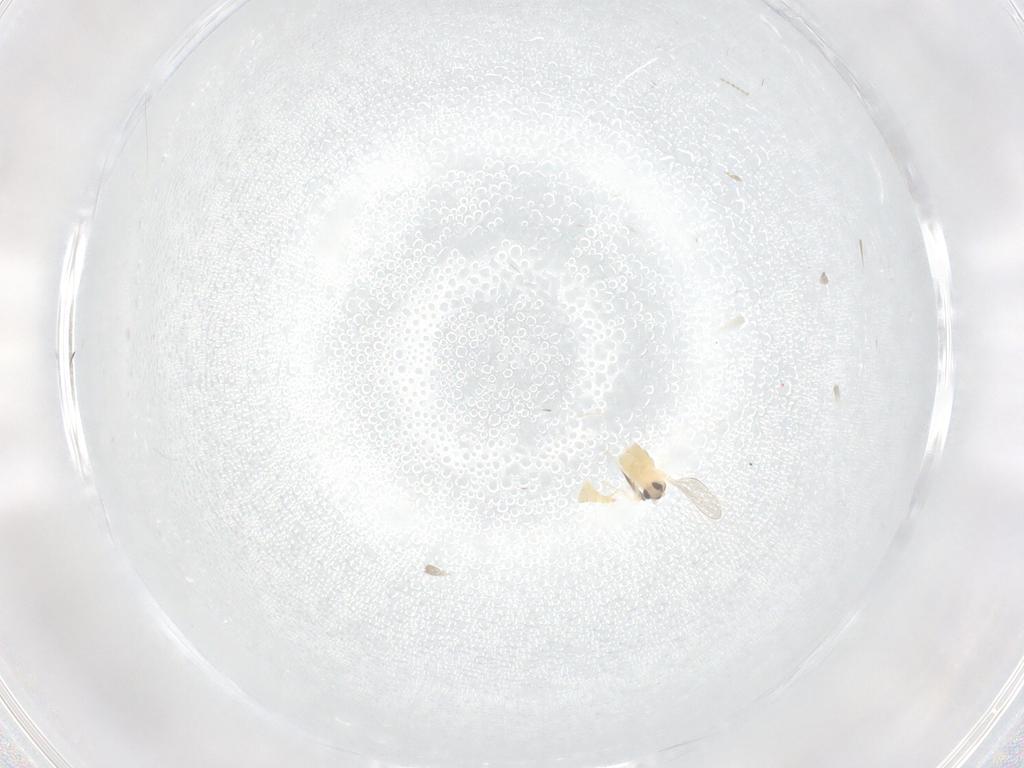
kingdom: Animalia
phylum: Arthropoda
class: Insecta
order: Diptera
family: Cecidomyiidae
